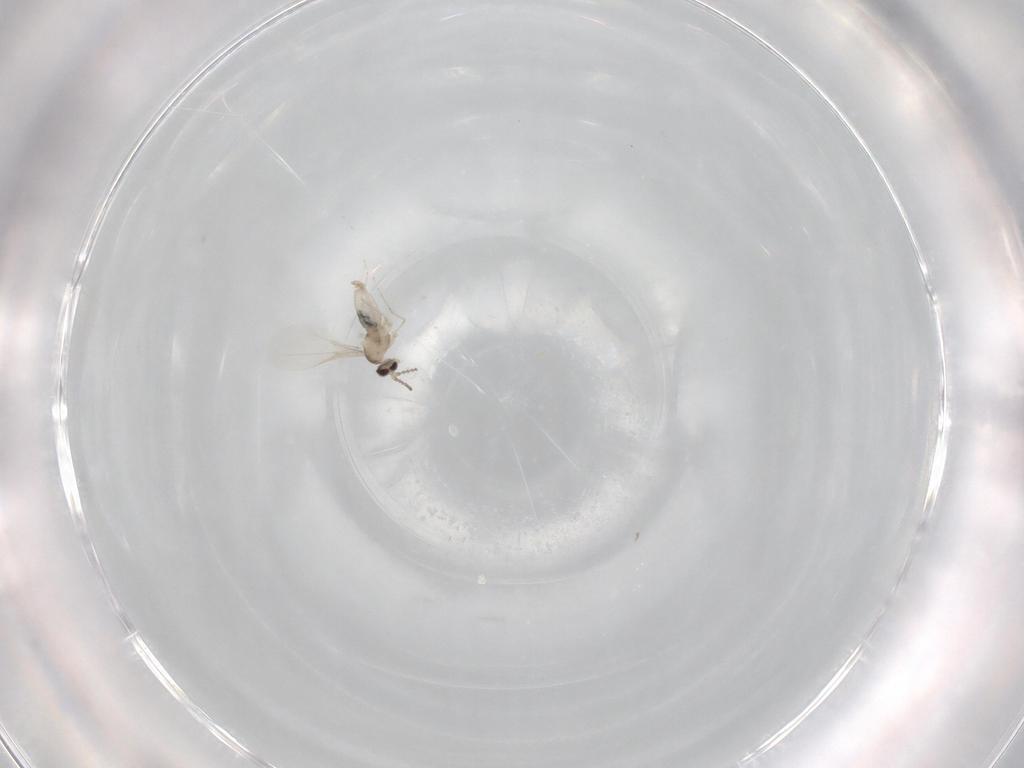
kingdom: Animalia
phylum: Arthropoda
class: Insecta
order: Diptera
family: Cecidomyiidae
